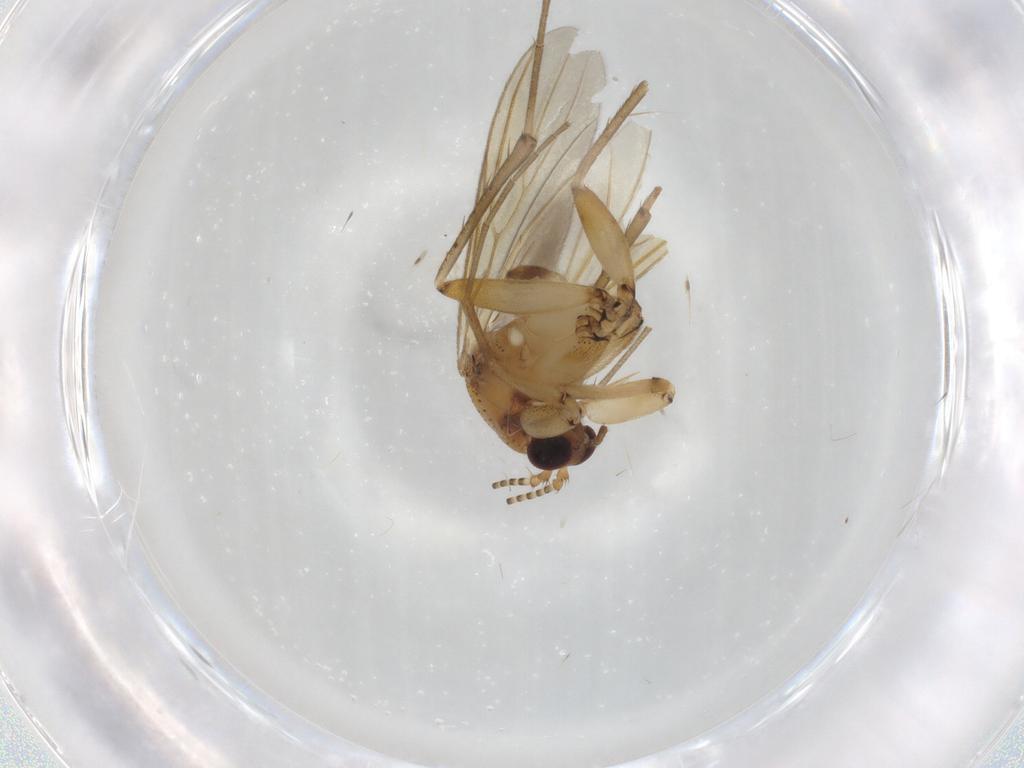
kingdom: Animalia
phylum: Arthropoda
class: Insecta
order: Diptera
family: Mycetophilidae
